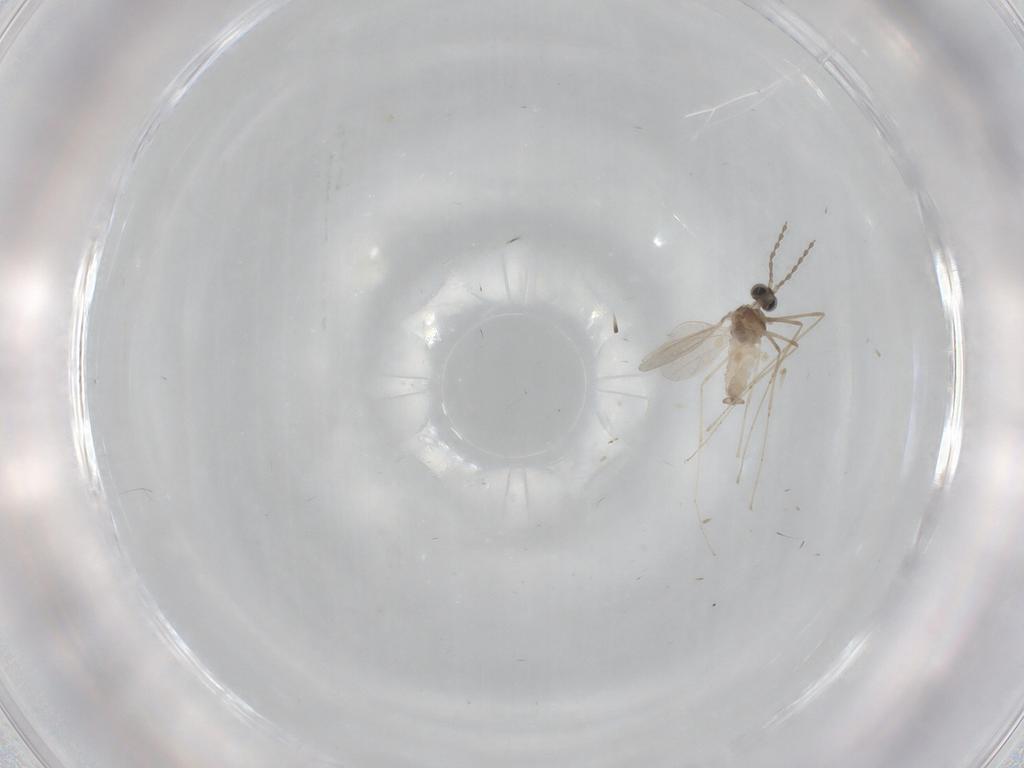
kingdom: Animalia
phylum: Arthropoda
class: Insecta
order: Diptera
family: Cecidomyiidae
